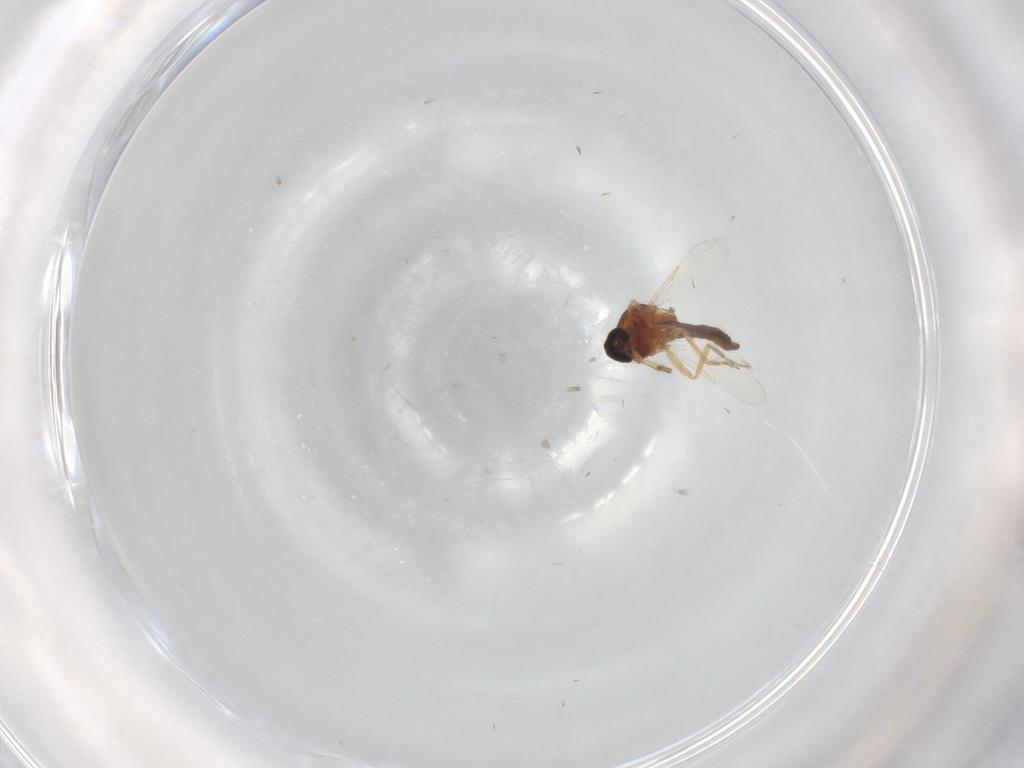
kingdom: Animalia
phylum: Arthropoda
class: Insecta
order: Diptera
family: Ceratopogonidae
